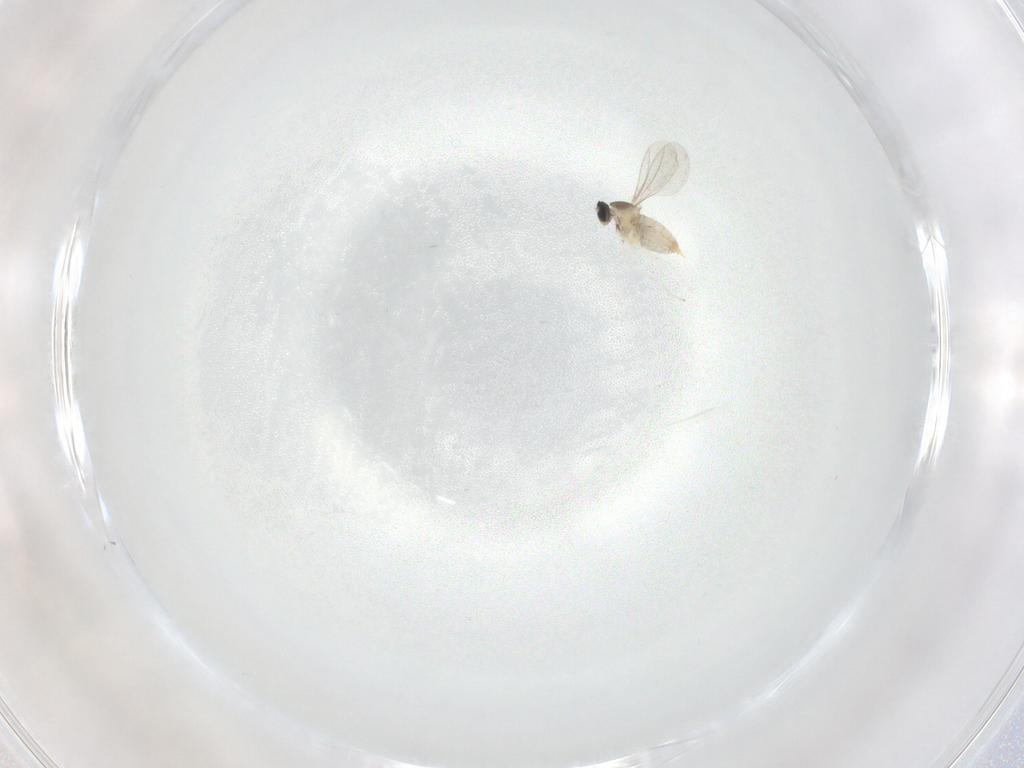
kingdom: Animalia
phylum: Arthropoda
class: Insecta
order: Diptera
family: Cecidomyiidae
